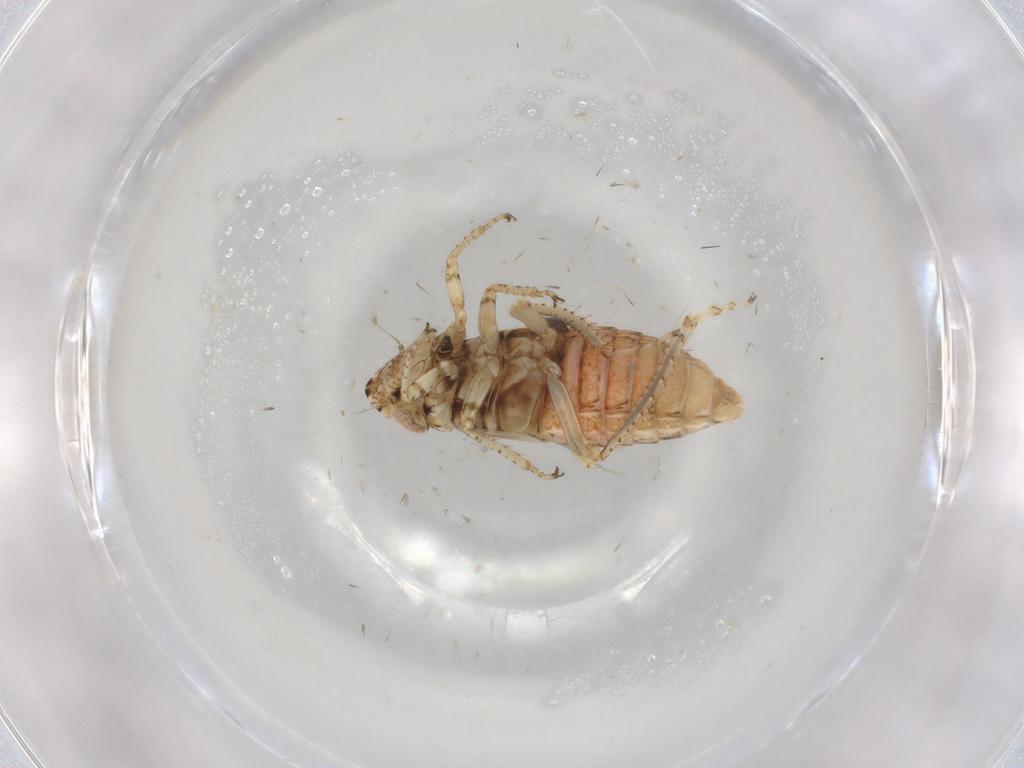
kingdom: Animalia
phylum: Arthropoda
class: Insecta
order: Hemiptera
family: Cicadellidae
